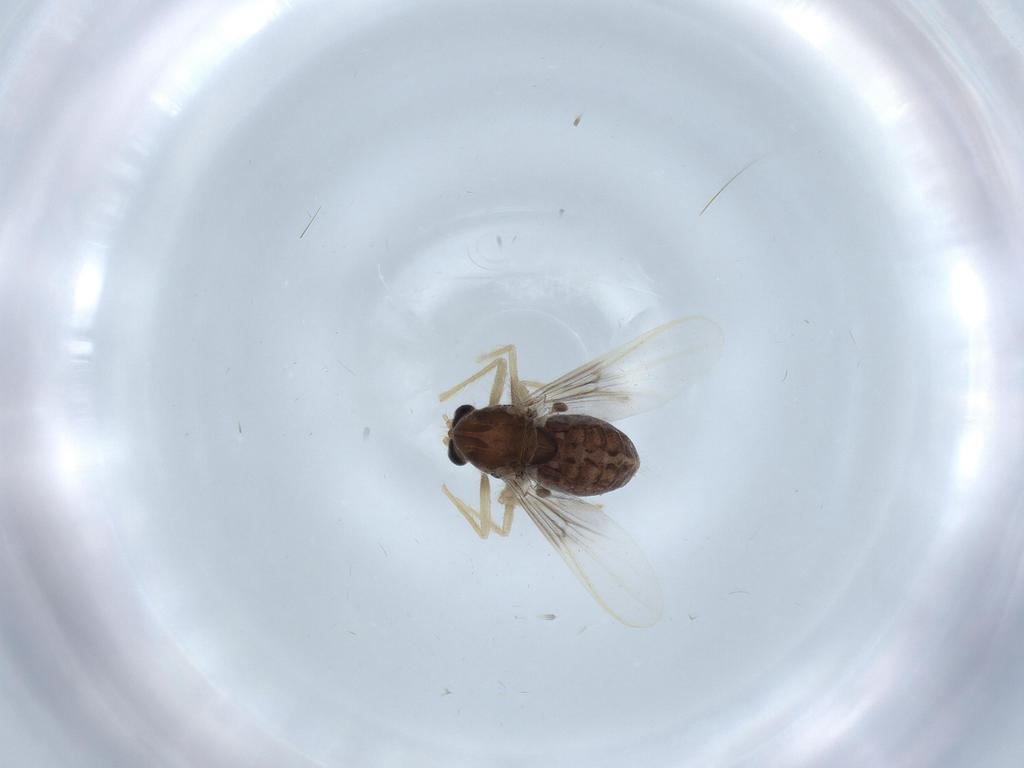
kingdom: Animalia
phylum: Arthropoda
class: Insecta
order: Diptera
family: Chironomidae
